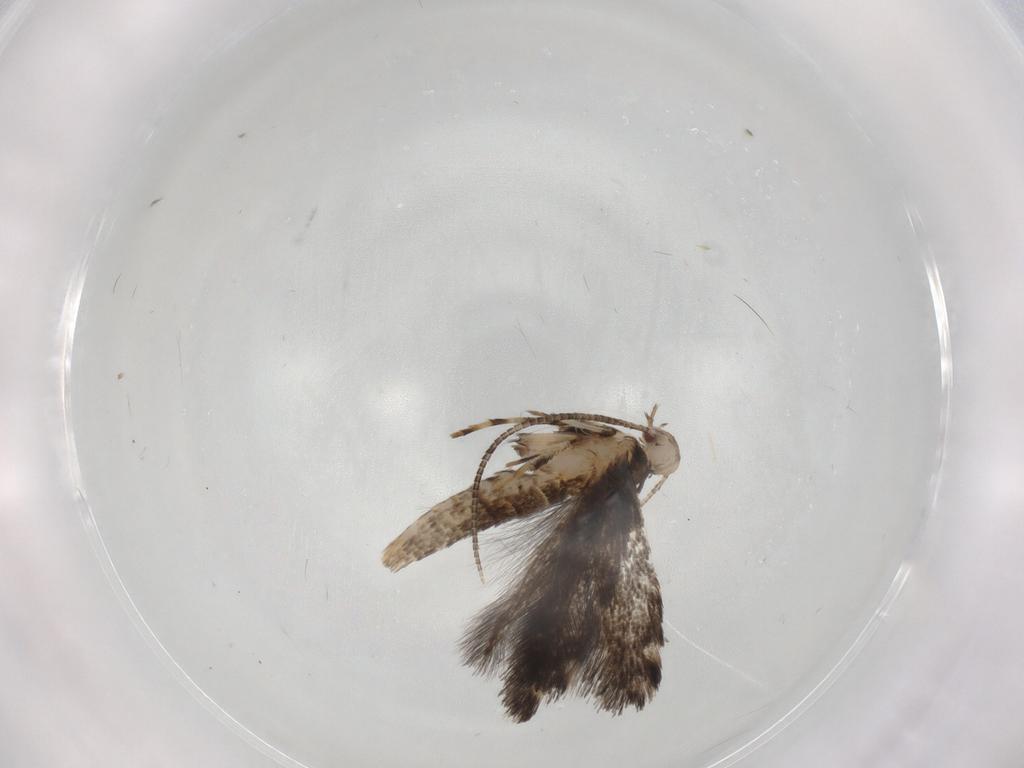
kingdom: Animalia
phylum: Arthropoda
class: Insecta
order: Lepidoptera
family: Gracillariidae
